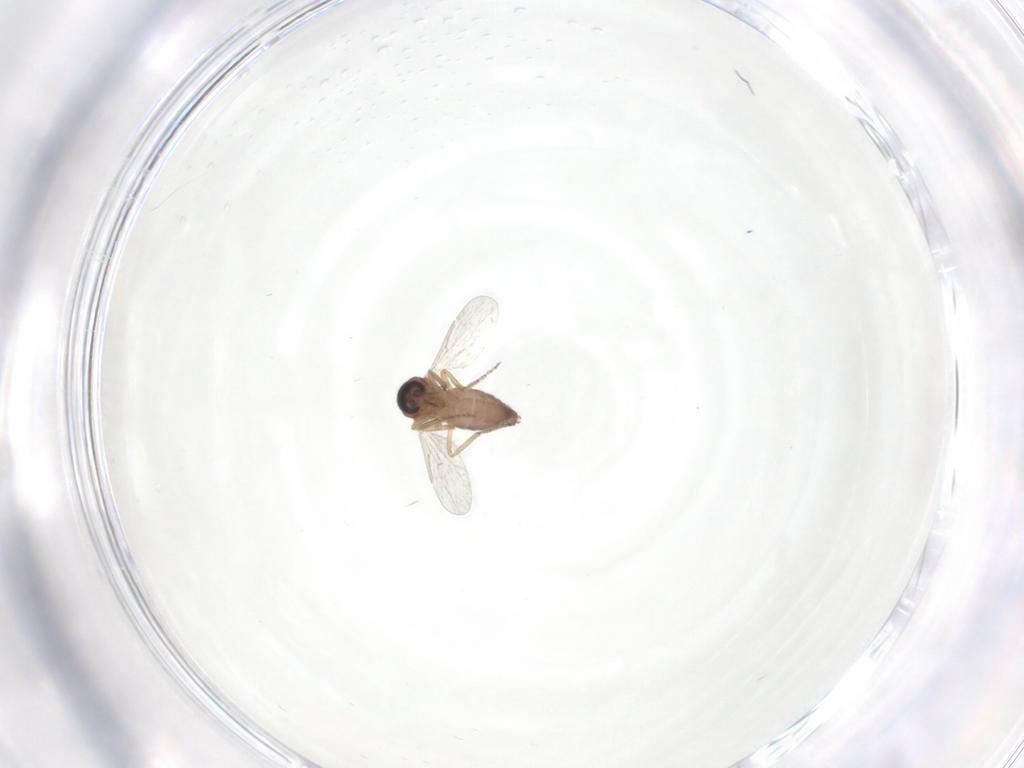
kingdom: Animalia
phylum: Arthropoda
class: Insecta
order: Diptera
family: Ceratopogonidae
